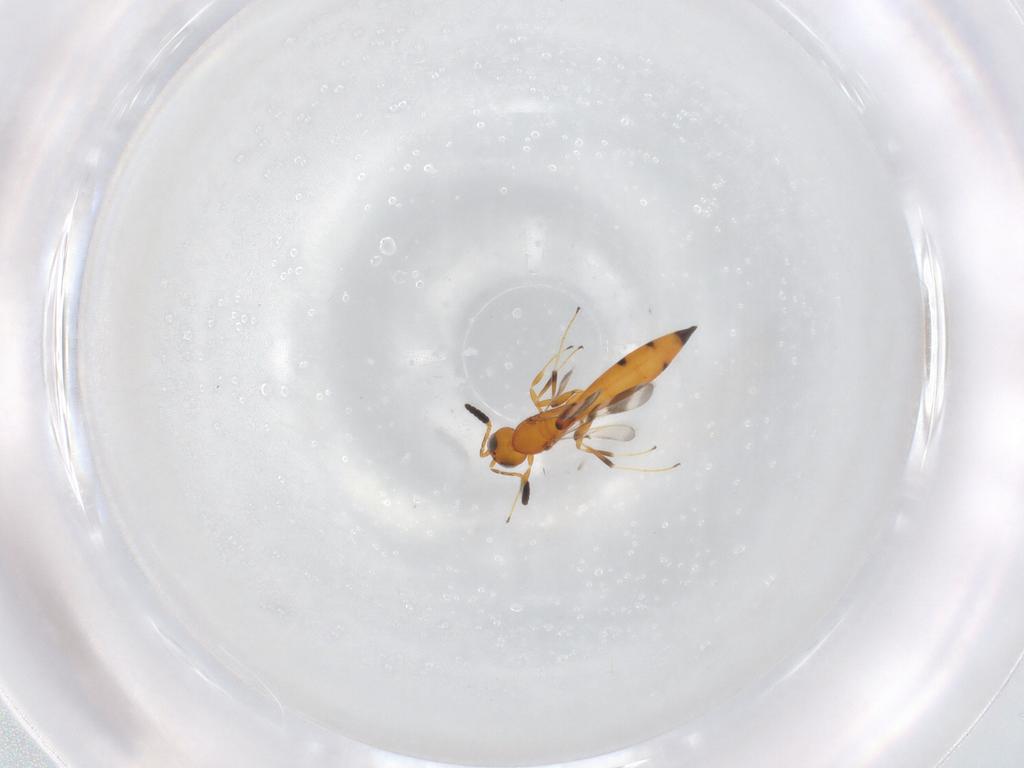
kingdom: Animalia
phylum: Arthropoda
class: Insecta
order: Hymenoptera
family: Scelionidae
